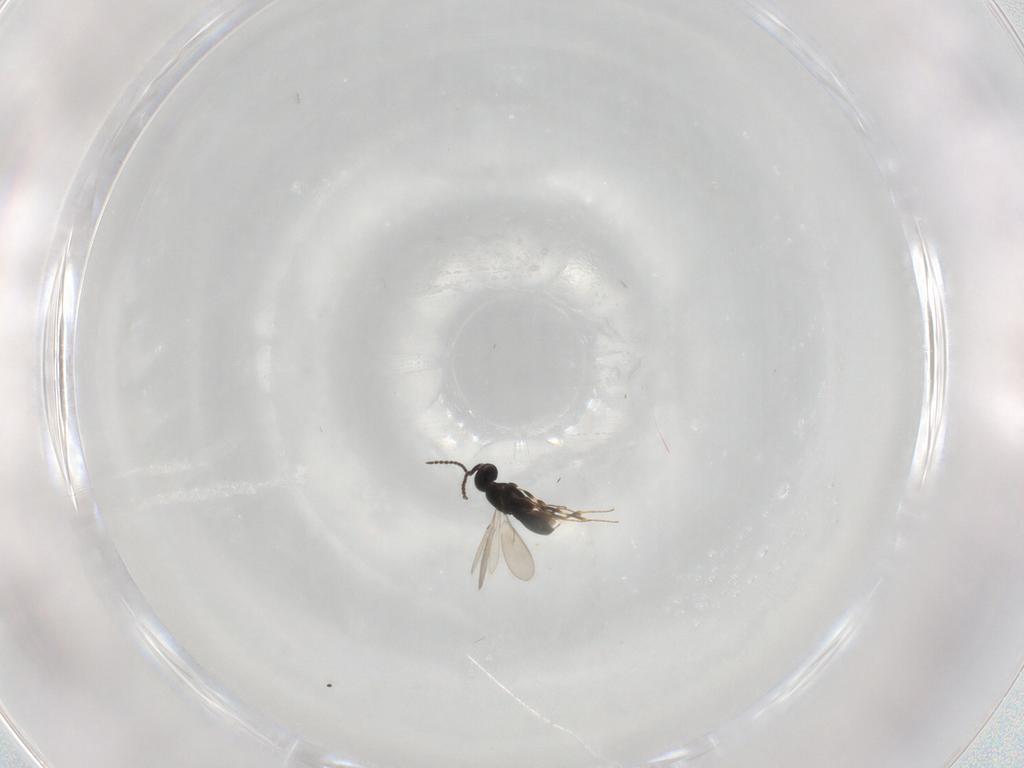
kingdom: Animalia
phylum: Arthropoda
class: Insecta
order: Hymenoptera
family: Scelionidae
